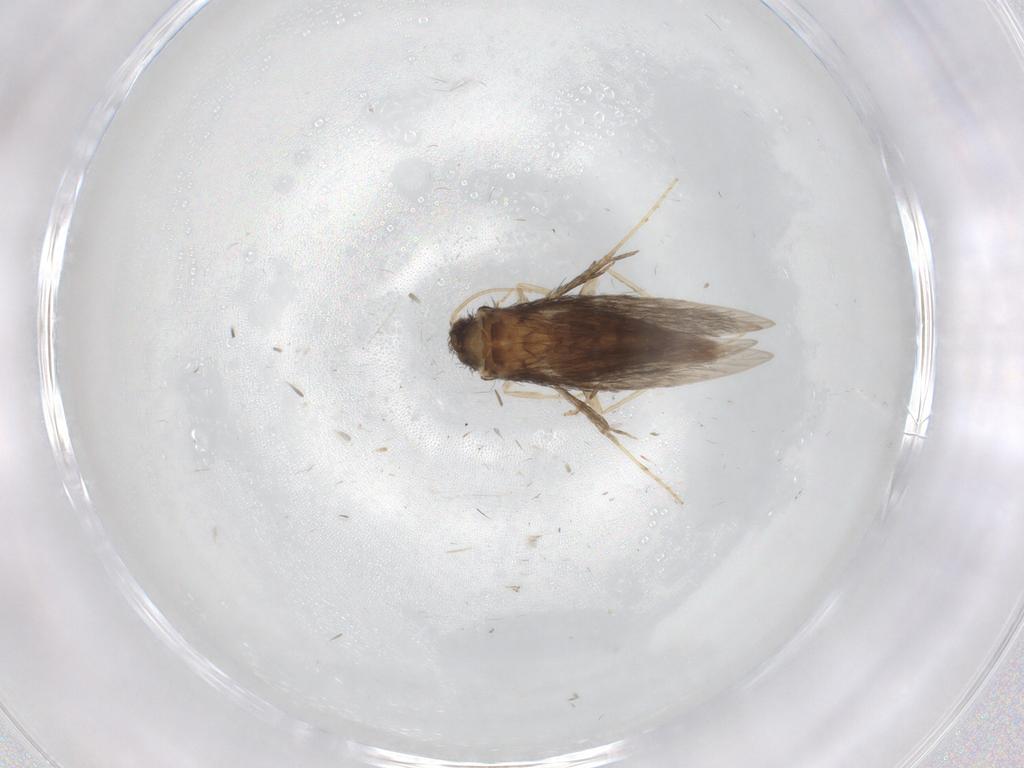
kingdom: Animalia
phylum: Arthropoda
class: Insecta
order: Trichoptera
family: Hydroptilidae
